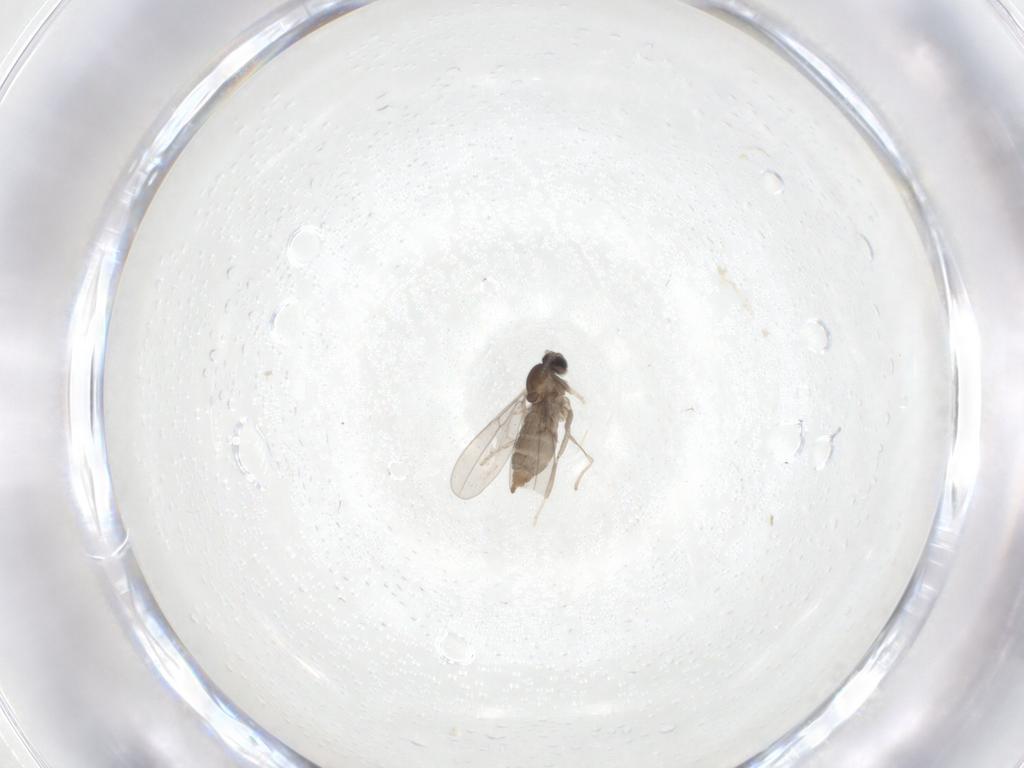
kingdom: Animalia
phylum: Arthropoda
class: Insecta
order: Diptera
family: Cecidomyiidae
